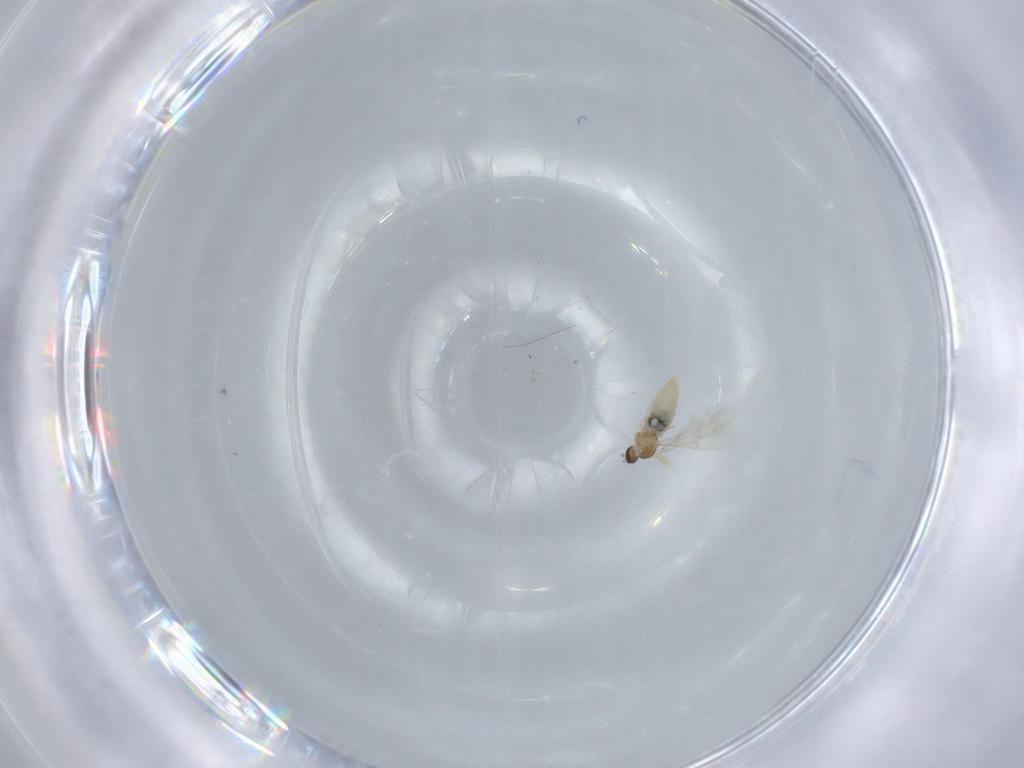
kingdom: Animalia
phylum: Arthropoda
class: Insecta
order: Diptera
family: Cecidomyiidae
